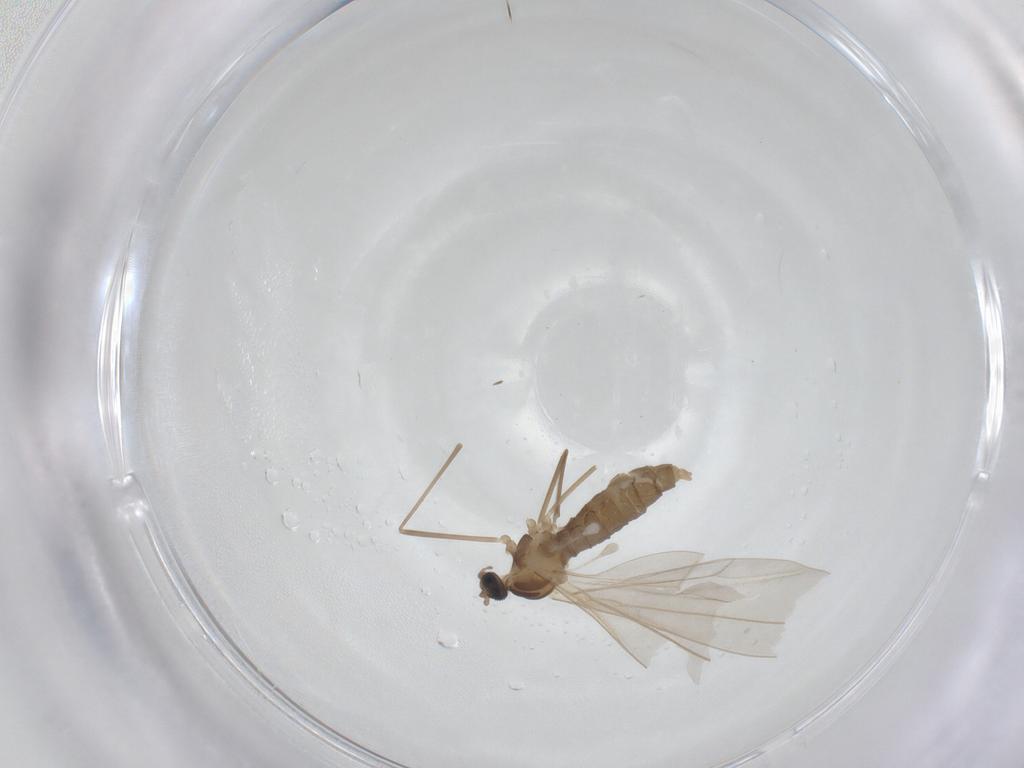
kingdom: Animalia
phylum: Arthropoda
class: Insecta
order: Diptera
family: Cecidomyiidae
